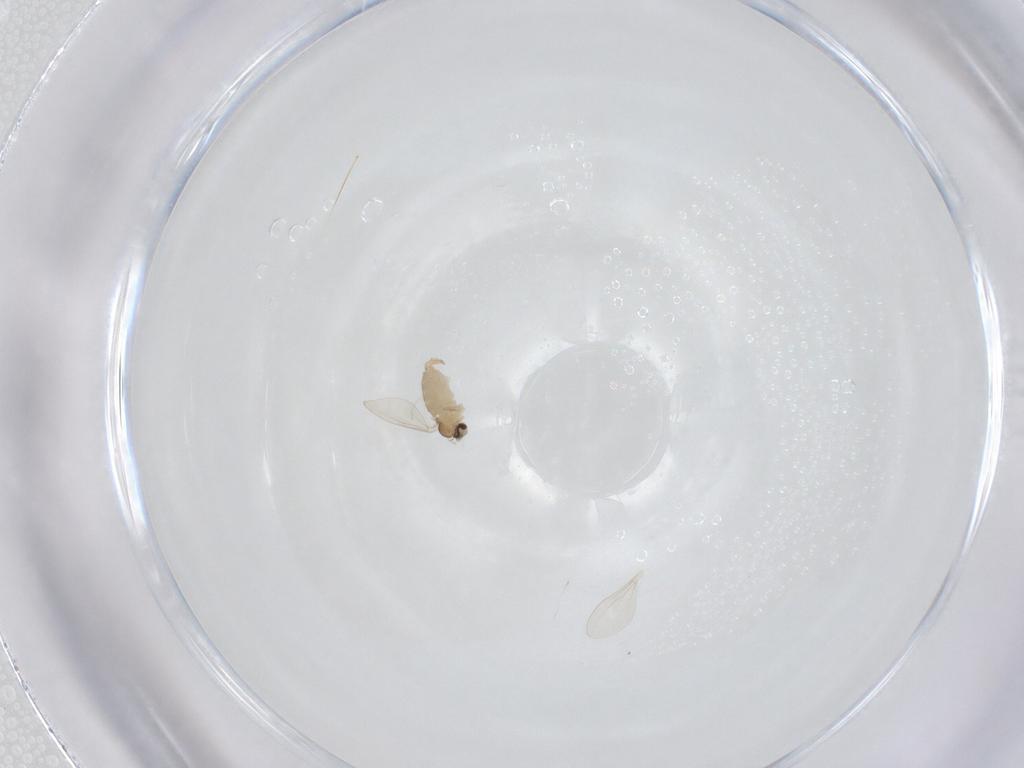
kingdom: Animalia
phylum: Arthropoda
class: Insecta
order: Diptera
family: Cecidomyiidae
